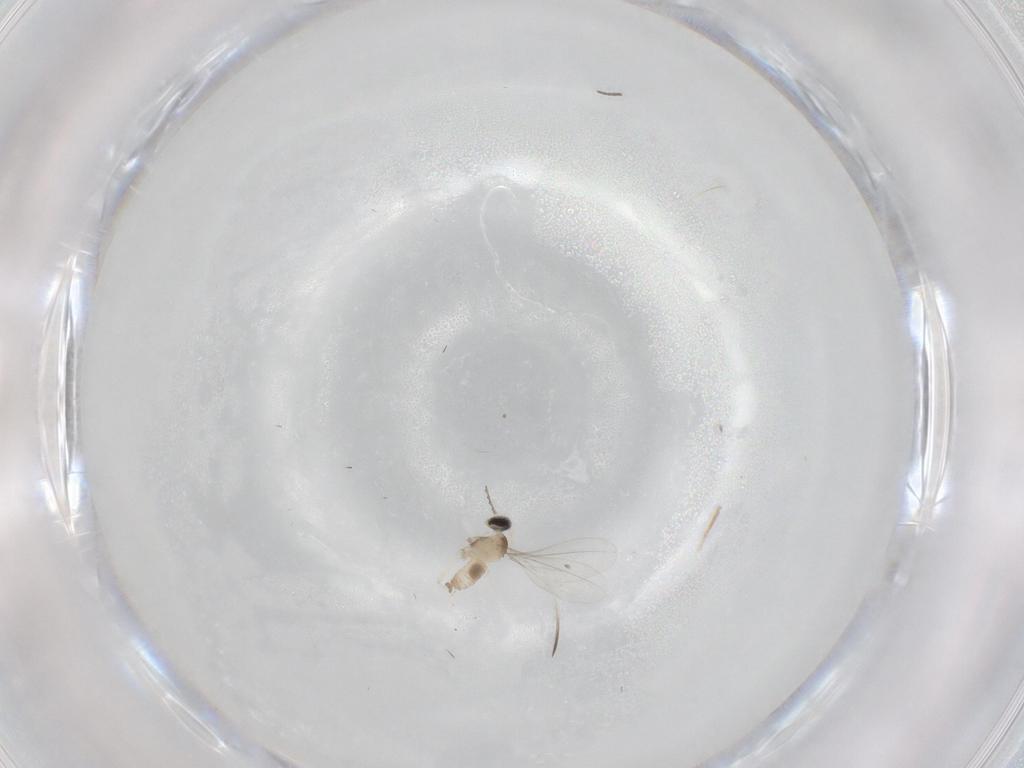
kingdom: Animalia
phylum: Arthropoda
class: Insecta
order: Diptera
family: Cecidomyiidae
